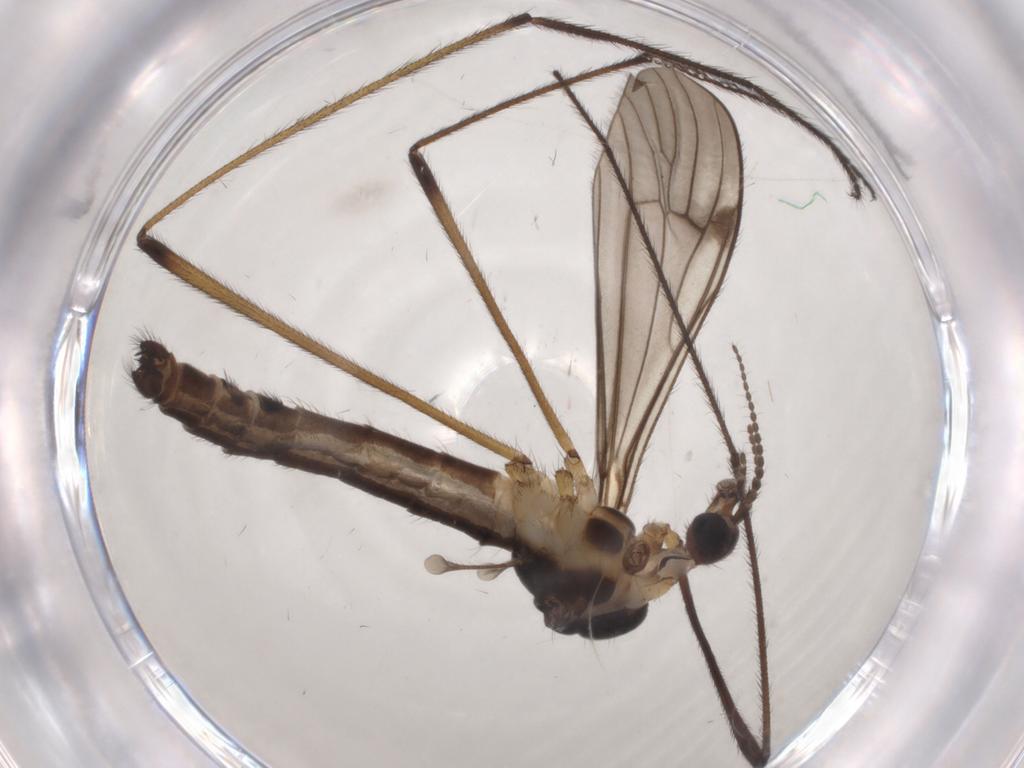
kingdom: Animalia
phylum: Arthropoda
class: Insecta
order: Diptera
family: Limoniidae
